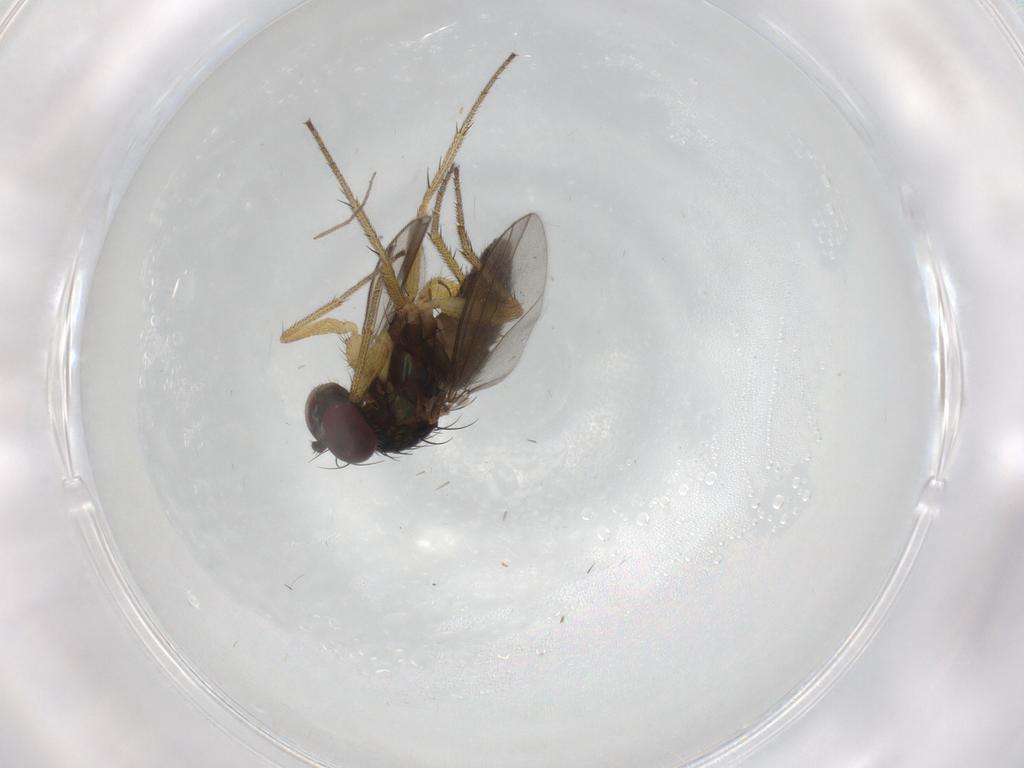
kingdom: Animalia
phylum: Arthropoda
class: Insecta
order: Diptera
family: Dolichopodidae
